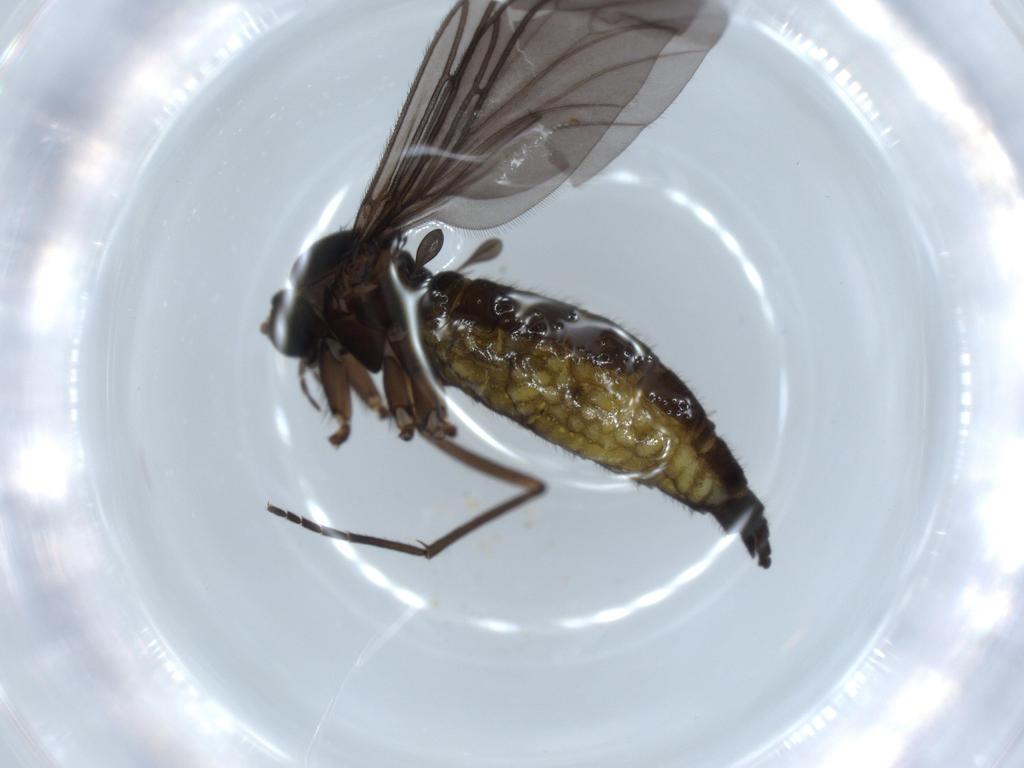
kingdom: Animalia
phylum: Arthropoda
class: Insecta
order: Diptera
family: Sciaridae
